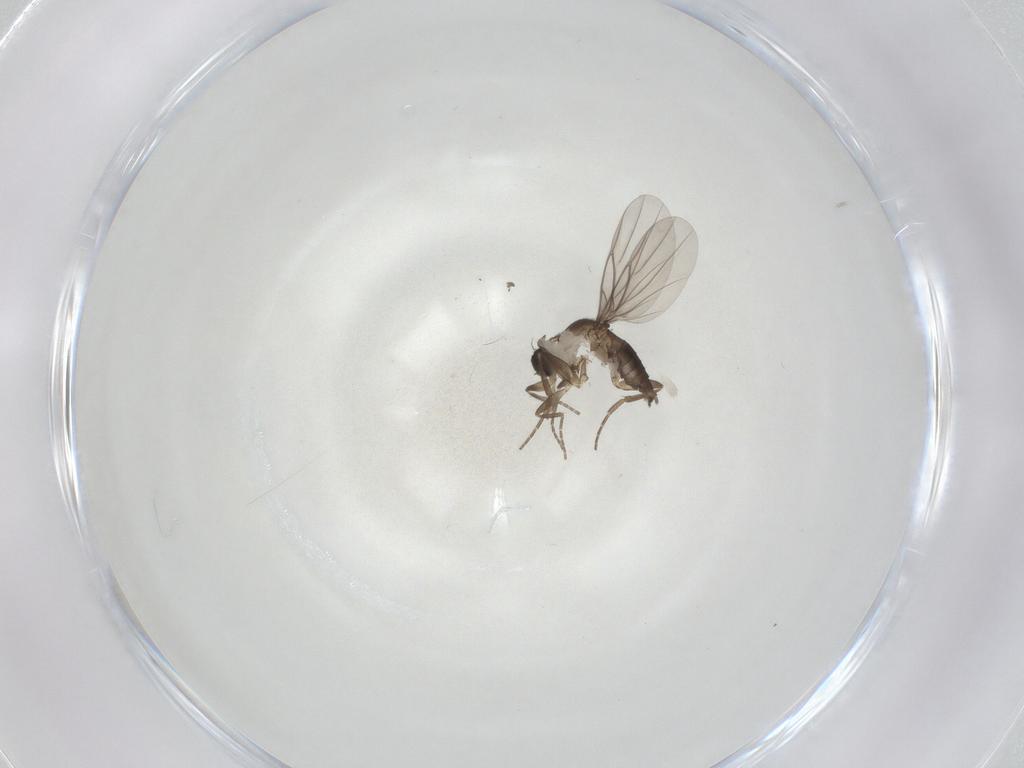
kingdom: Animalia
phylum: Arthropoda
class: Insecta
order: Diptera
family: Phoridae
